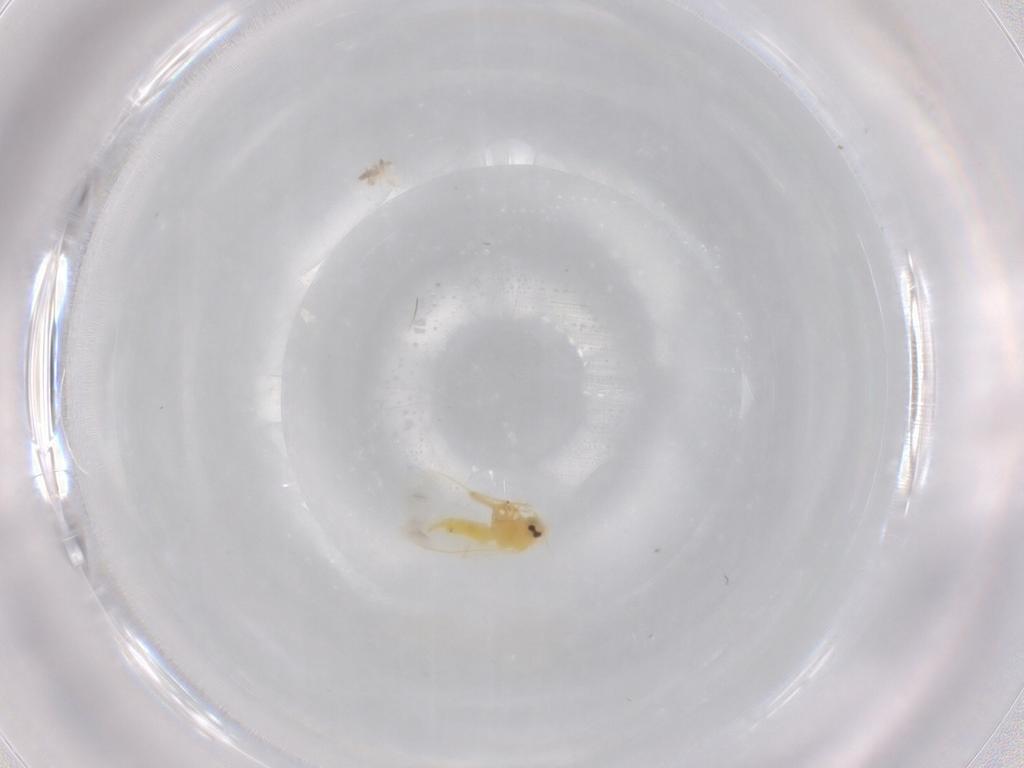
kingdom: Animalia
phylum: Arthropoda
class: Insecta
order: Hemiptera
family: Aleyrodidae
